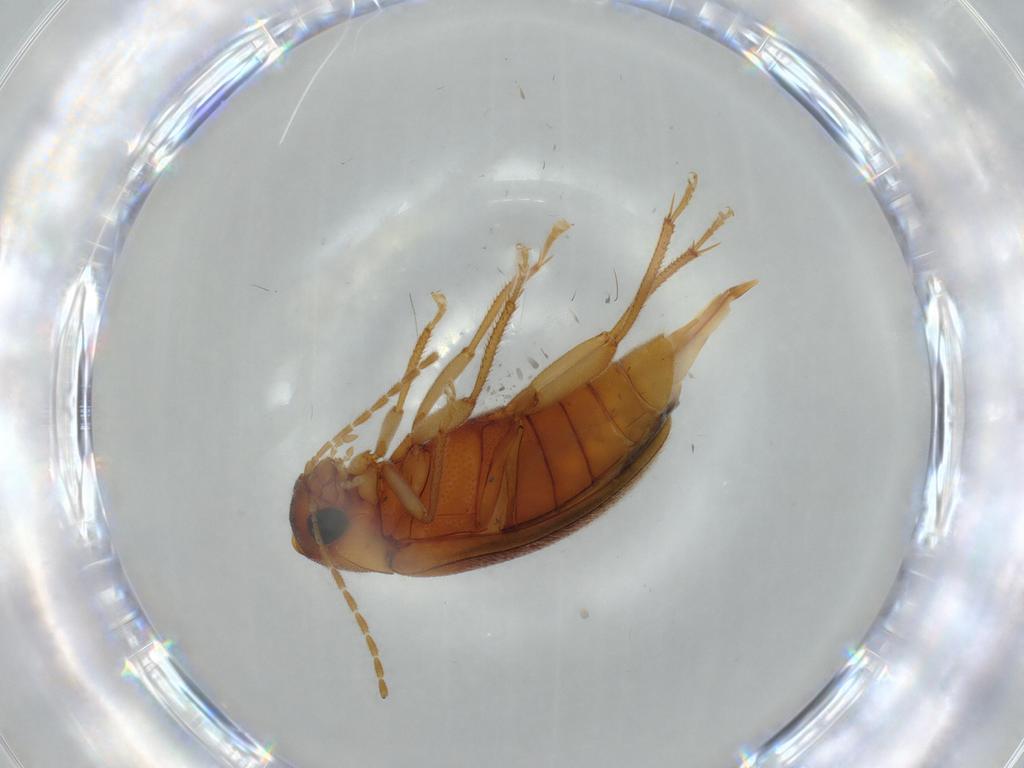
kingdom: Animalia
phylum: Arthropoda
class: Insecta
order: Coleoptera
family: Ptilodactylidae
